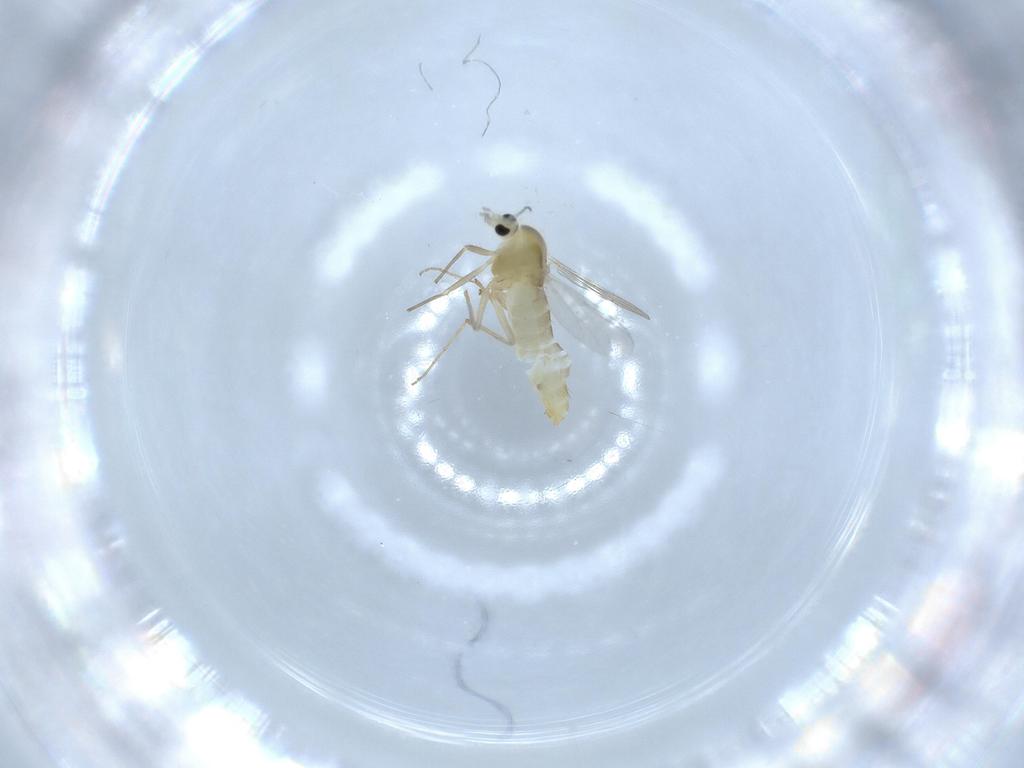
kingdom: Animalia
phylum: Arthropoda
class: Insecta
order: Diptera
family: Chironomidae
